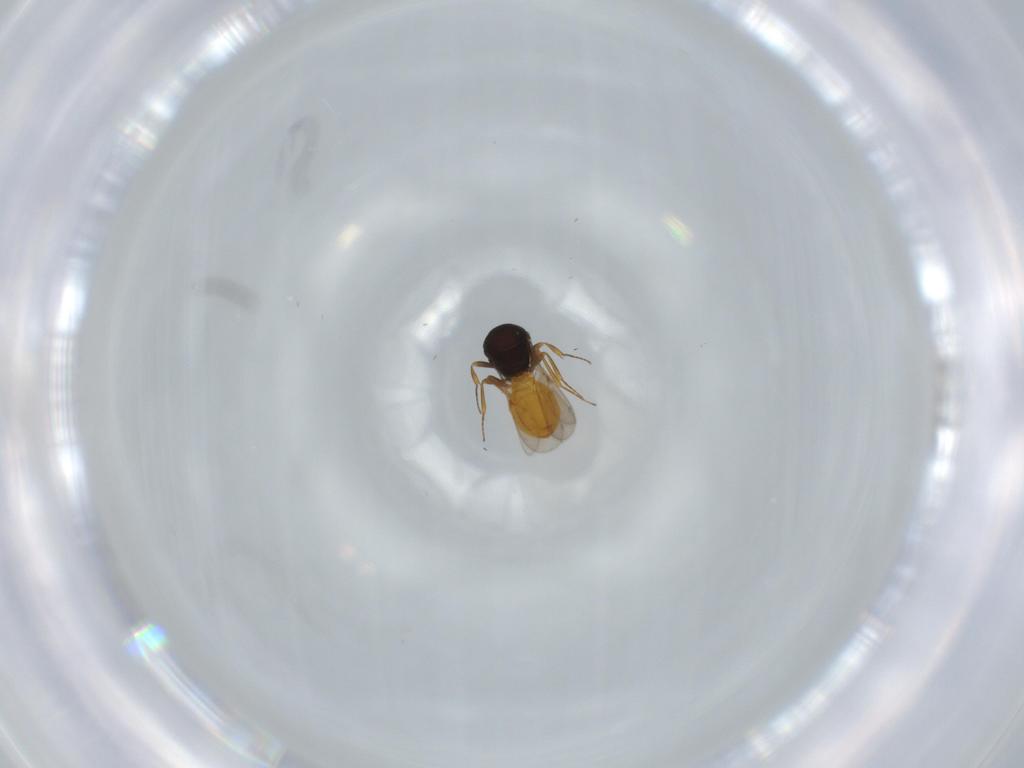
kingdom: Animalia
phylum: Arthropoda
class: Insecta
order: Hymenoptera
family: Scelionidae
